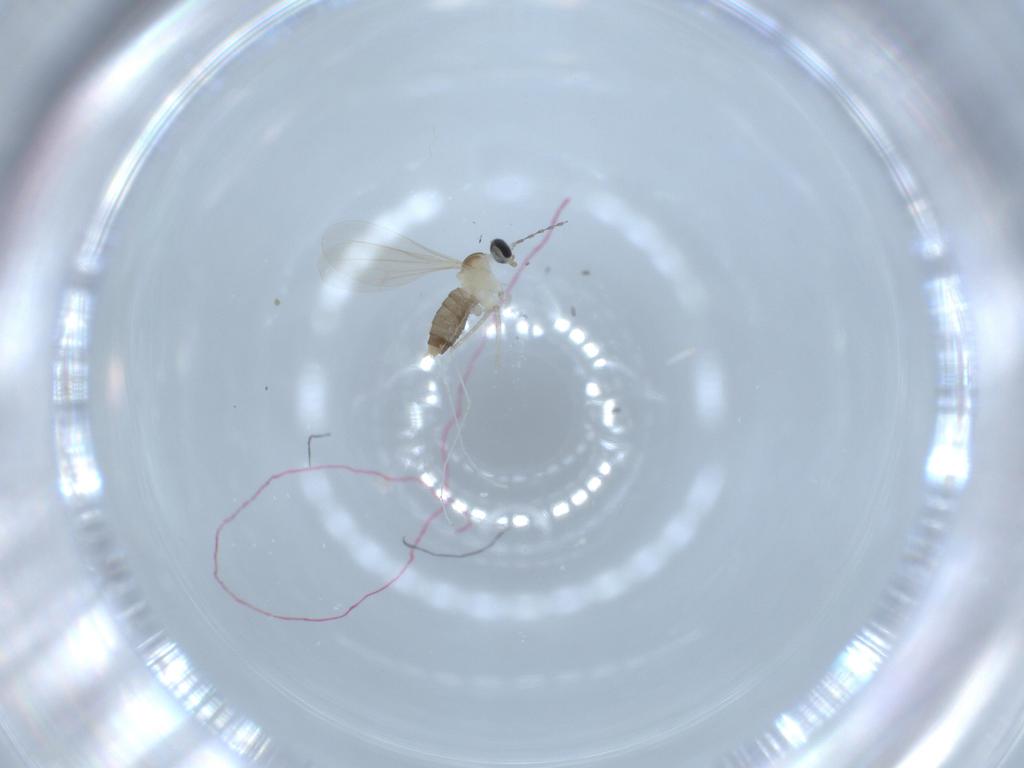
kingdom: Animalia
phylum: Arthropoda
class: Insecta
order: Diptera
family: Cecidomyiidae
